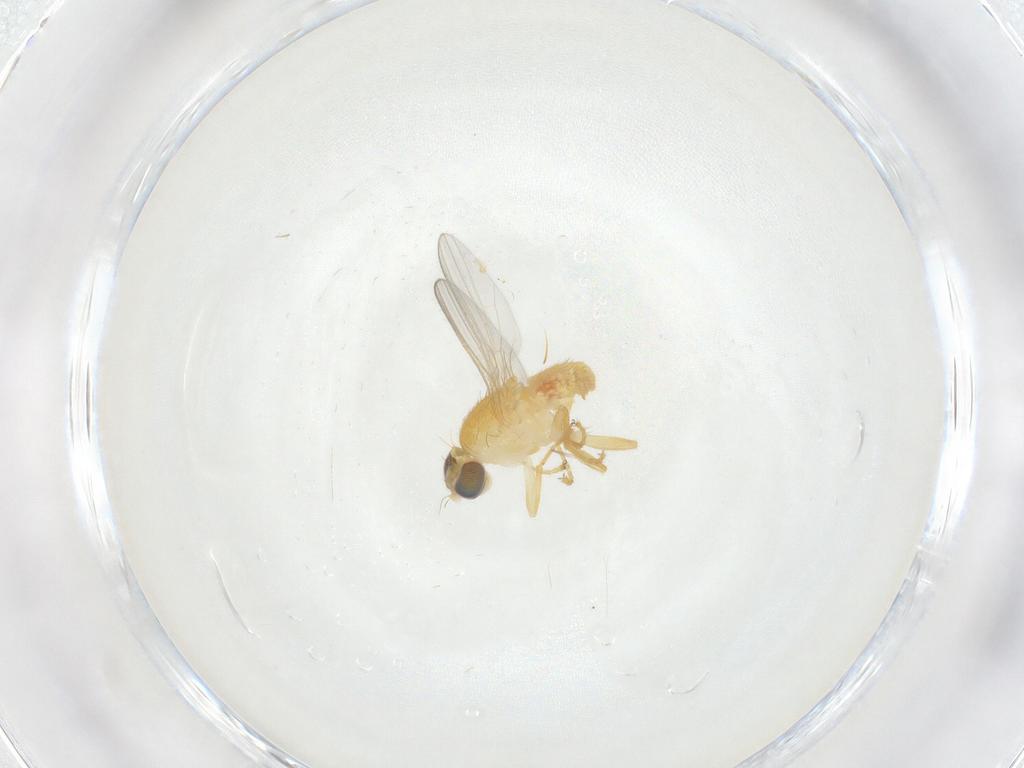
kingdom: Animalia
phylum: Arthropoda
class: Insecta
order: Diptera
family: Chyromyidae
